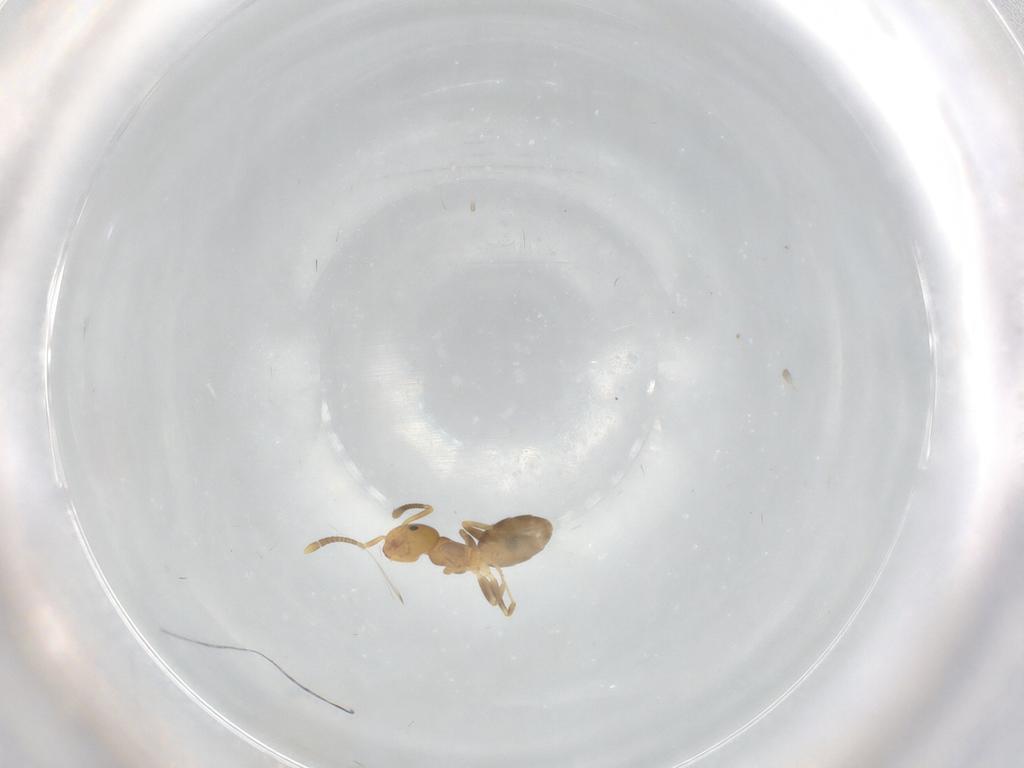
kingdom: Animalia
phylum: Arthropoda
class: Insecta
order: Hymenoptera
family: Formicidae
